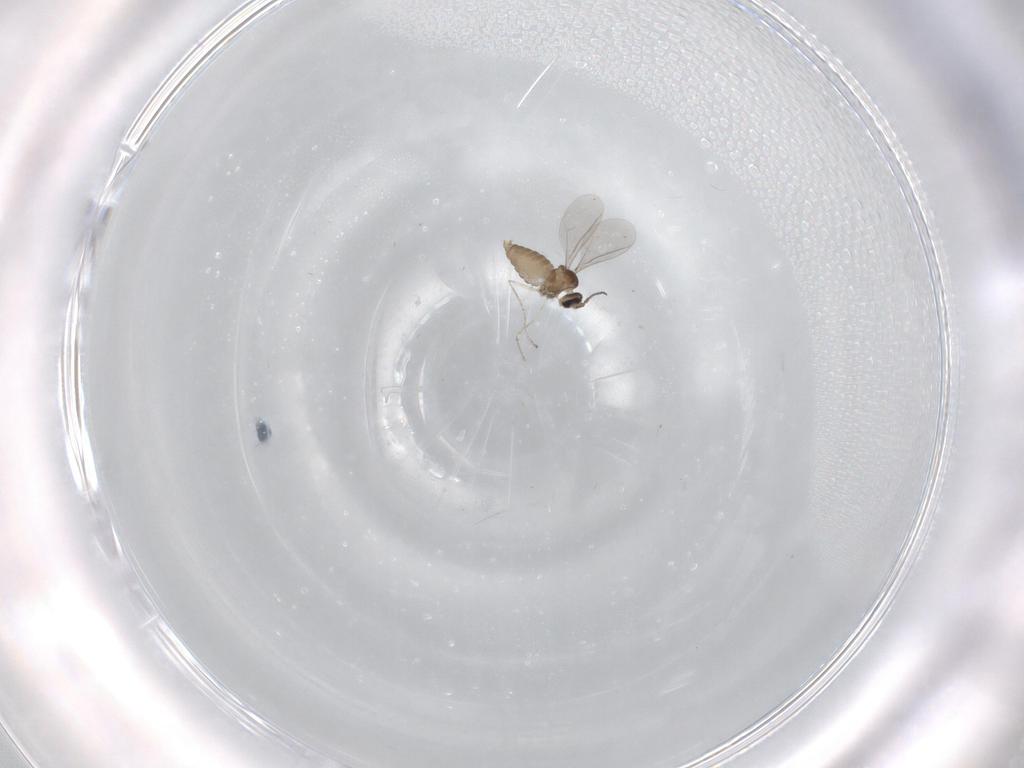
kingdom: Animalia
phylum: Arthropoda
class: Insecta
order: Diptera
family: Cecidomyiidae
